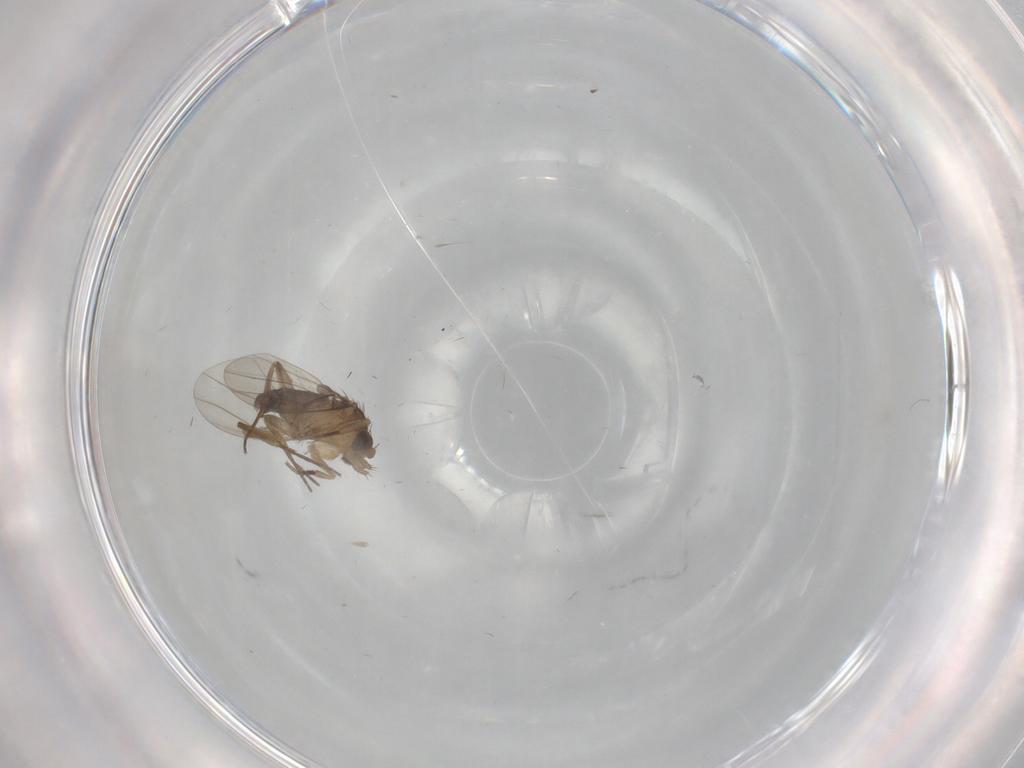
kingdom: Animalia
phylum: Arthropoda
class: Insecta
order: Diptera
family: Phoridae
